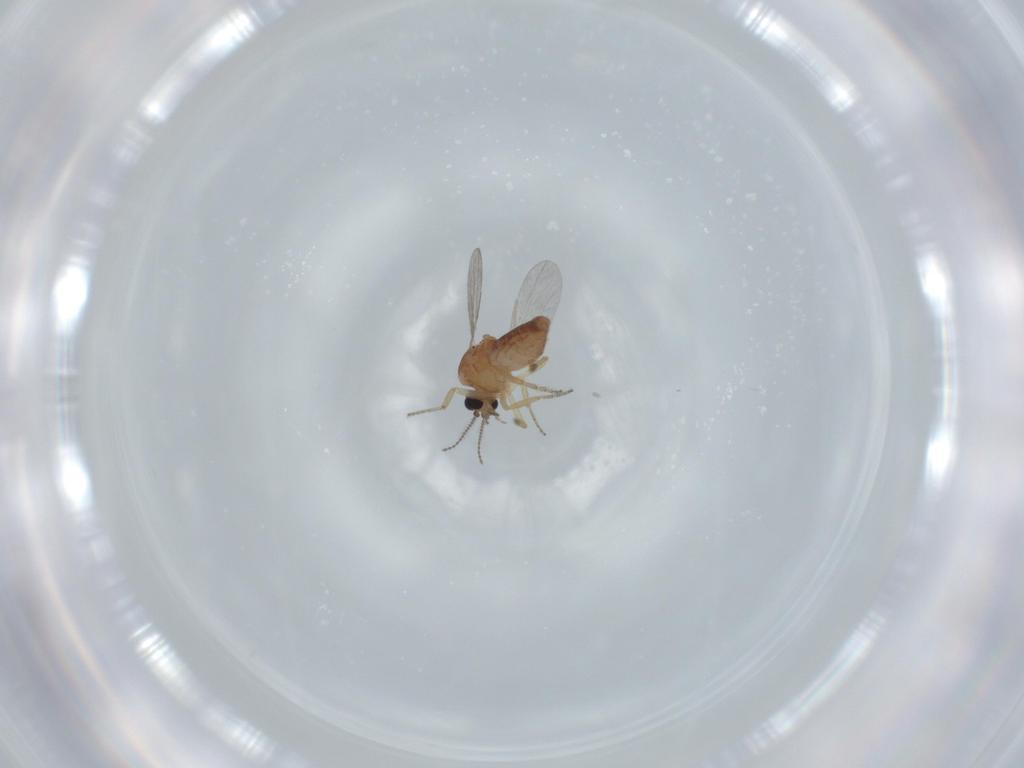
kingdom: Animalia
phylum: Arthropoda
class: Insecta
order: Diptera
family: Ceratopogonidae
